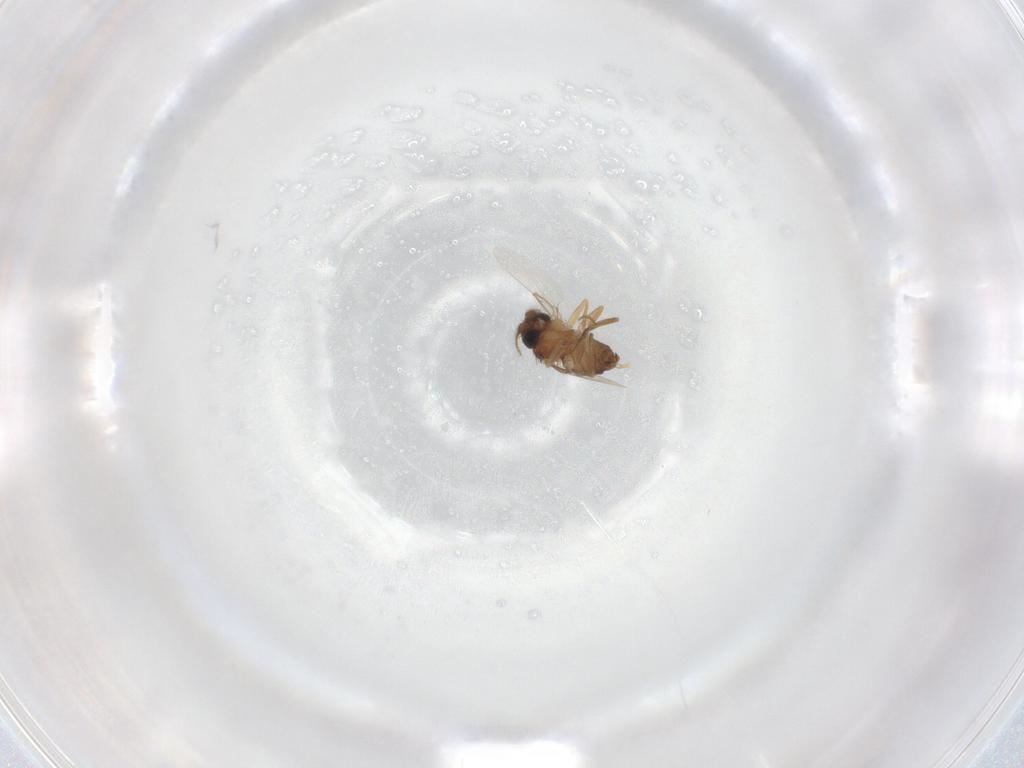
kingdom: Animalia
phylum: Arthropoda
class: Insecta
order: Diptera
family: Phoridae
